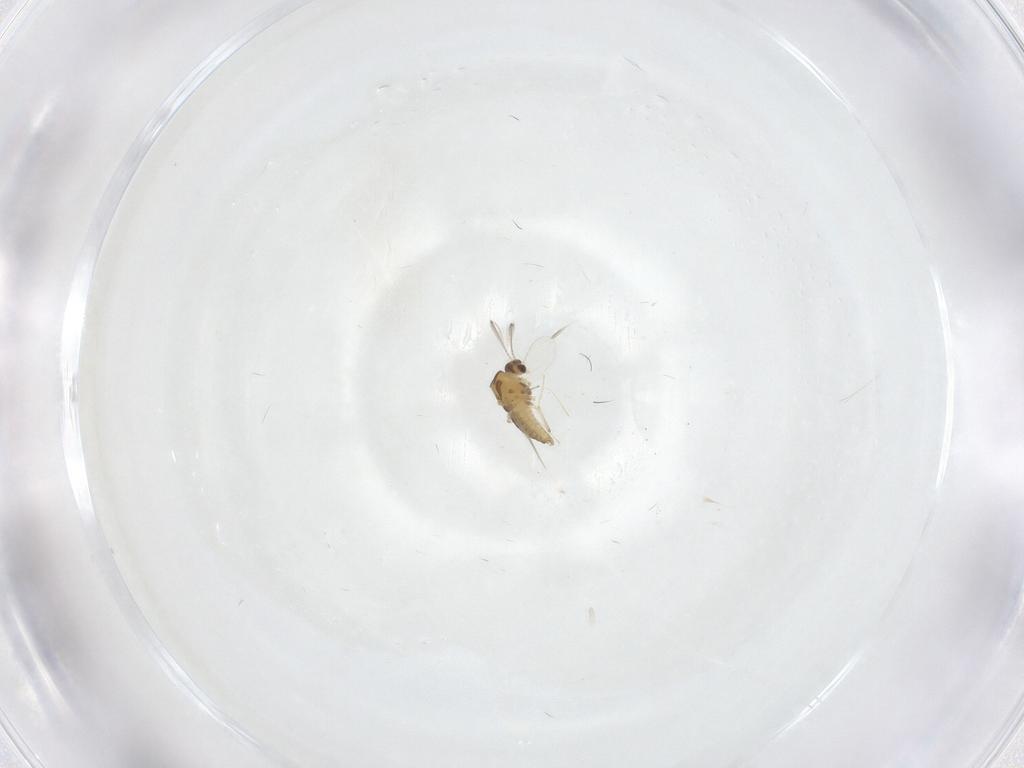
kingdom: Animalia
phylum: Arthropoda
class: Insecta
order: Diptera
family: Chironomidae
